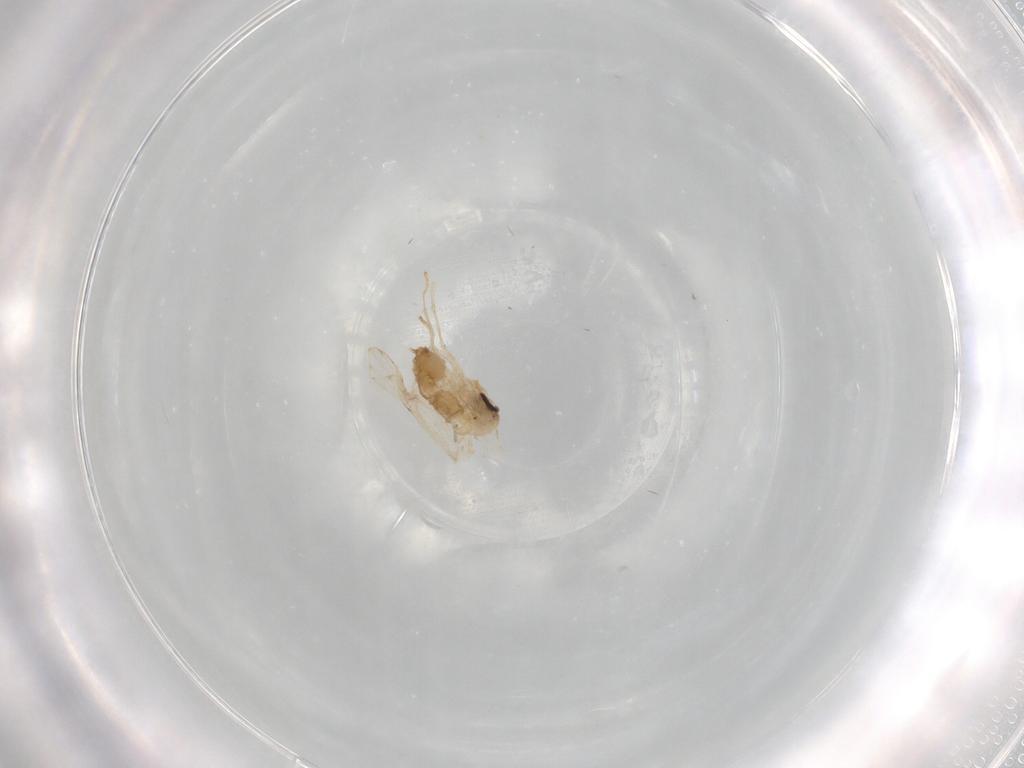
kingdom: Animalia
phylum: Arthropoda
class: Insecta
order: Diptera
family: Psychodidae
